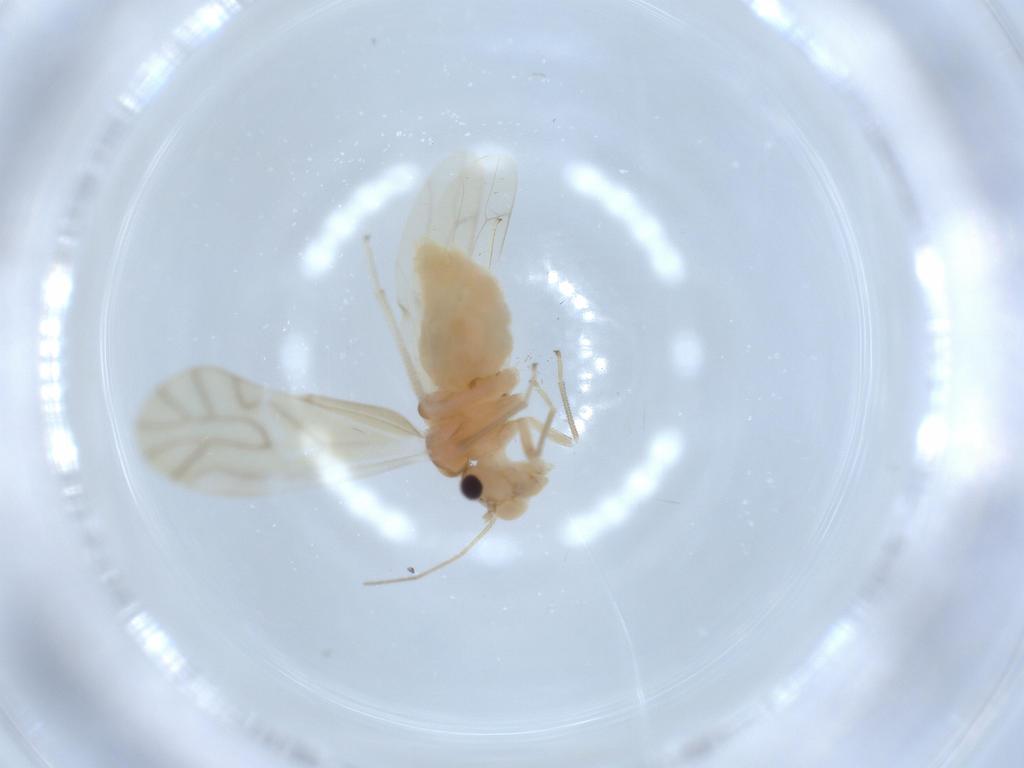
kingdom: Animalia
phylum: Arthropoda
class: Insecta
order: Psocodea
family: Caeciliusidae
